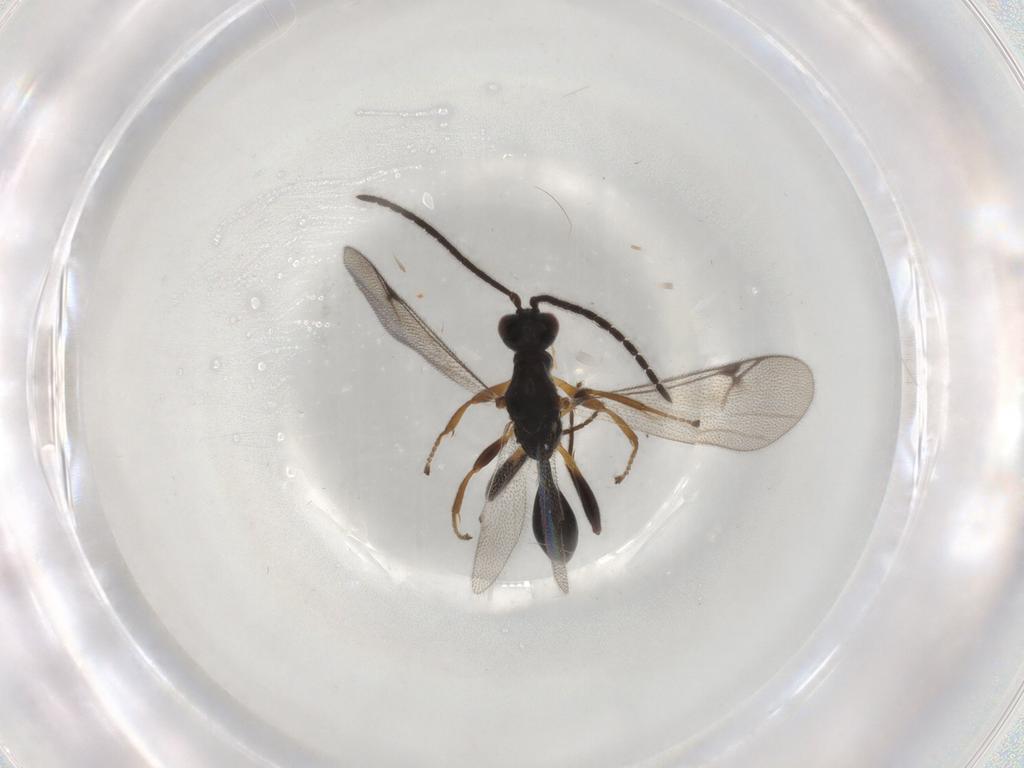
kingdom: Animalia
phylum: Arthropoda
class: Insecta
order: Hymenoptera
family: Proctotrupidae
